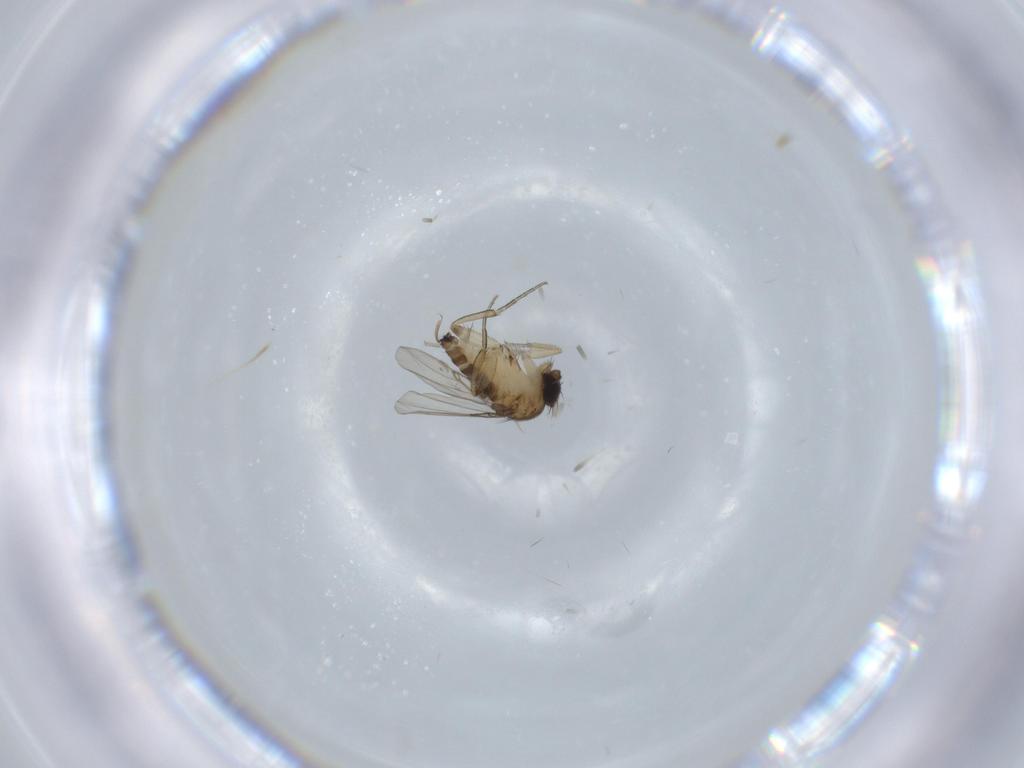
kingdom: Animalia
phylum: Arthropoda
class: Insecta
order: Diptera
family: Phoridae
